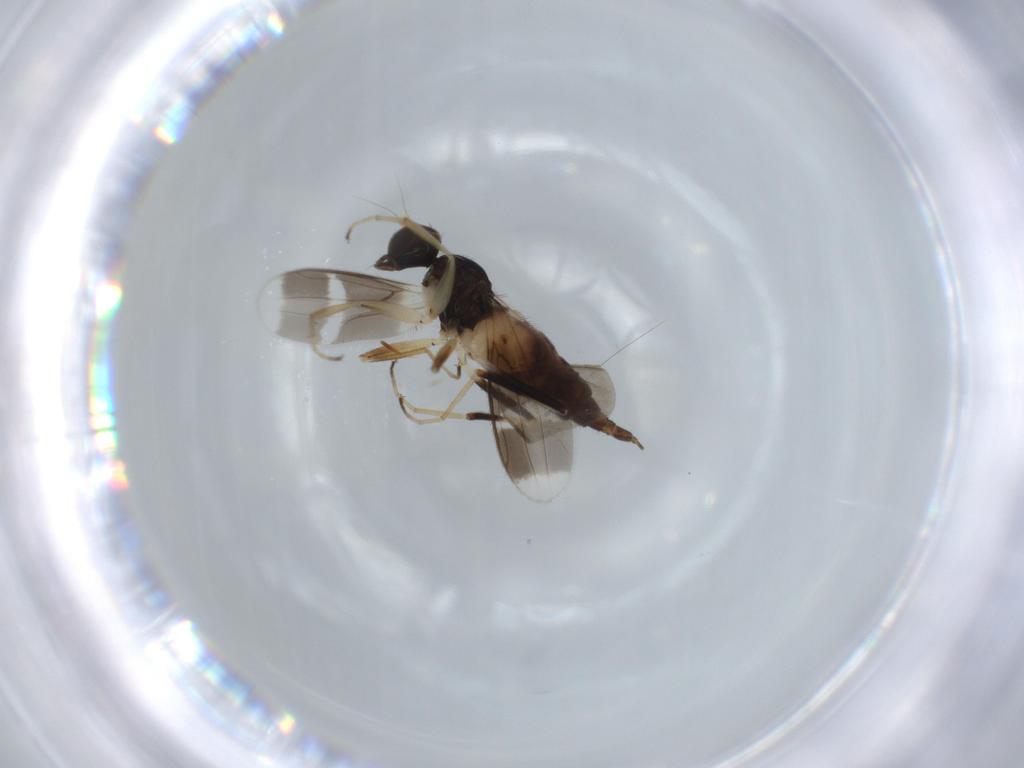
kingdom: Animalia
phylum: Arthropoda
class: Insecta
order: Diptera
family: Hybotidae
